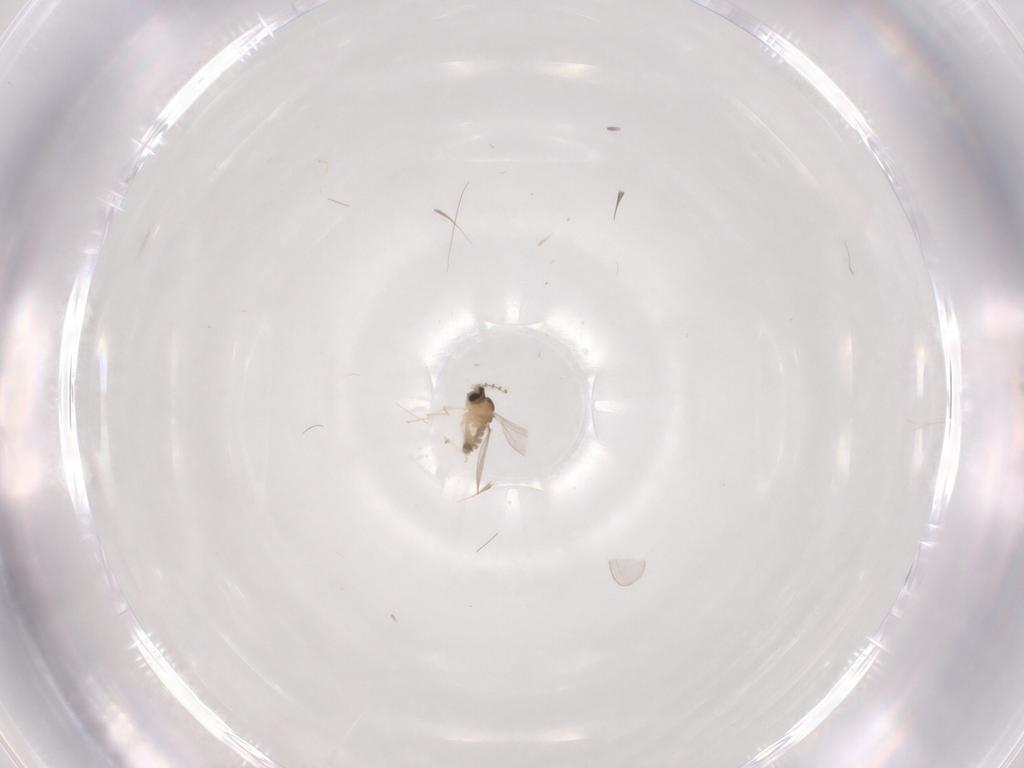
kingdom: Animalia
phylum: Arthropoda
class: Insecta
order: Diptera
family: Cecidomyiidae
